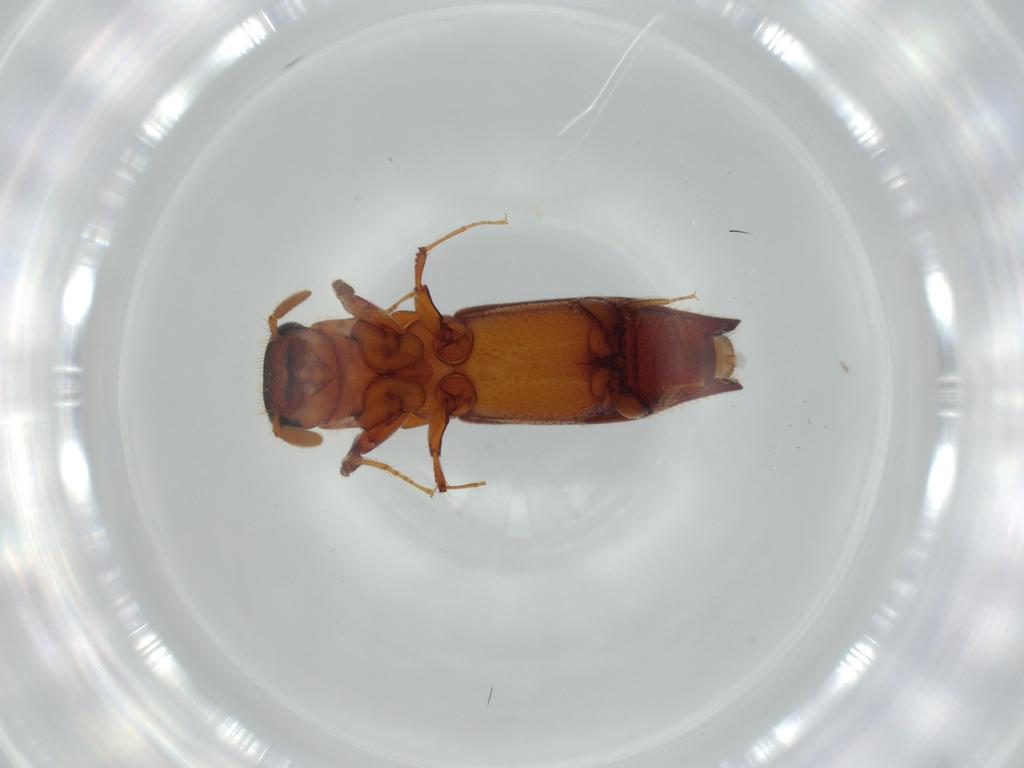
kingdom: Animalia
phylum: Arthropoda
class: Insecta
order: Coleoptera
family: Curculionidae
